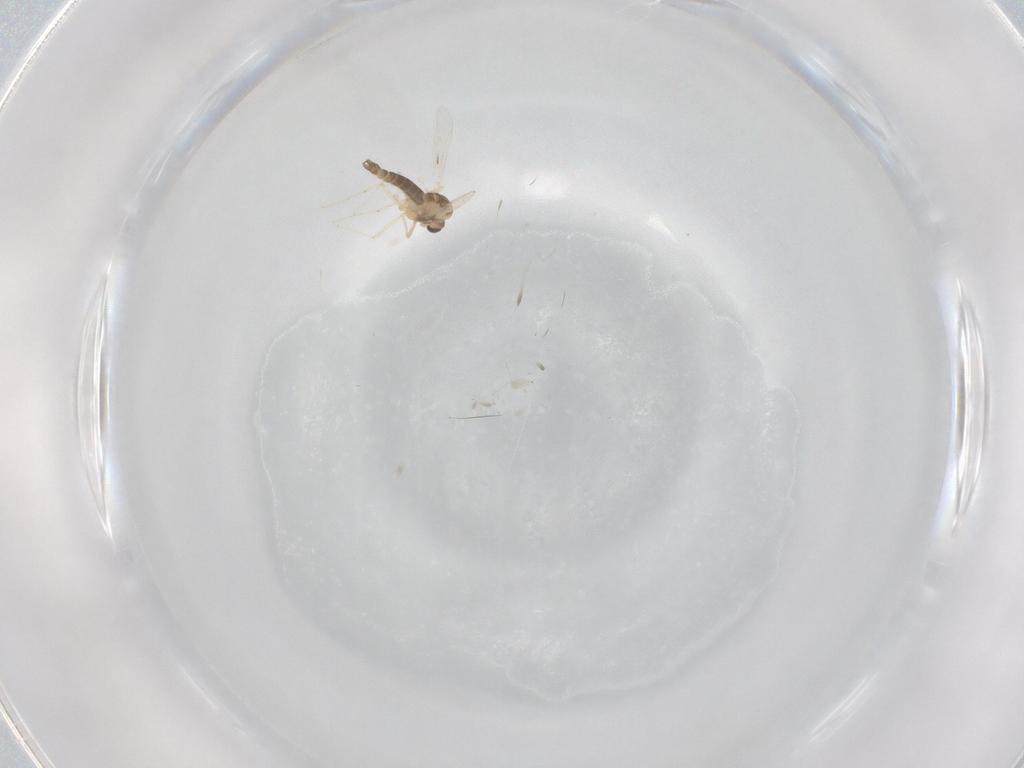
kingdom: Animalia
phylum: Arthropoda
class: Insecta
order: Diptera
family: Chironomidae
